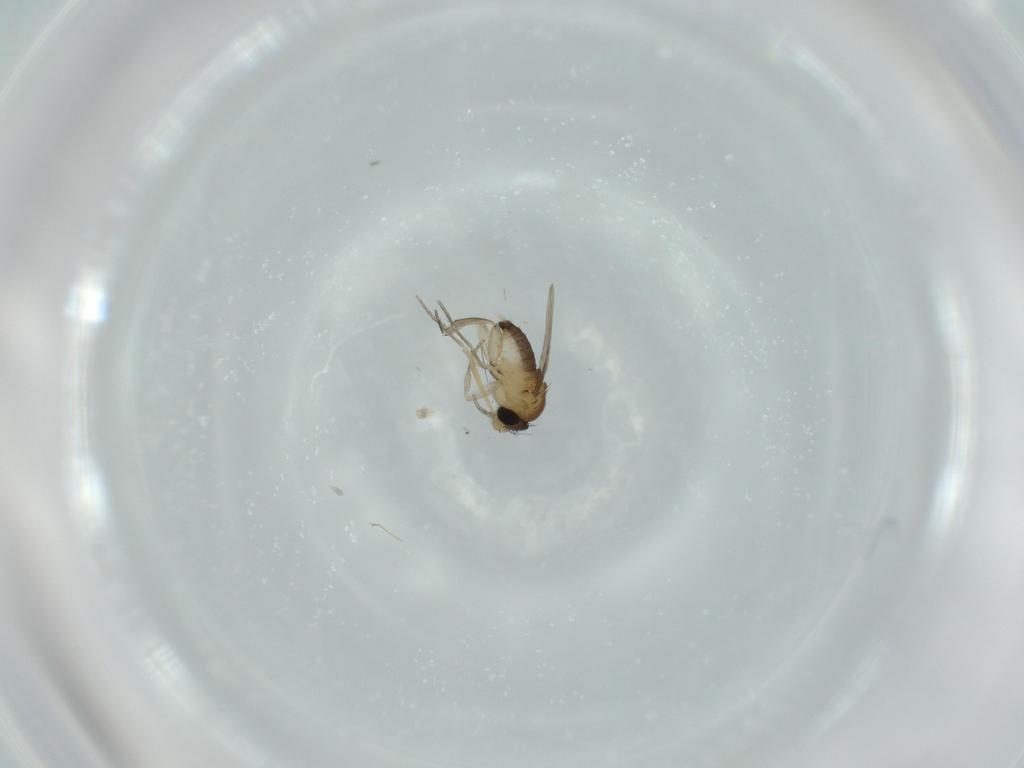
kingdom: Animalia
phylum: Arthropoda
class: Insecta
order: Diptera
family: Phoridae
